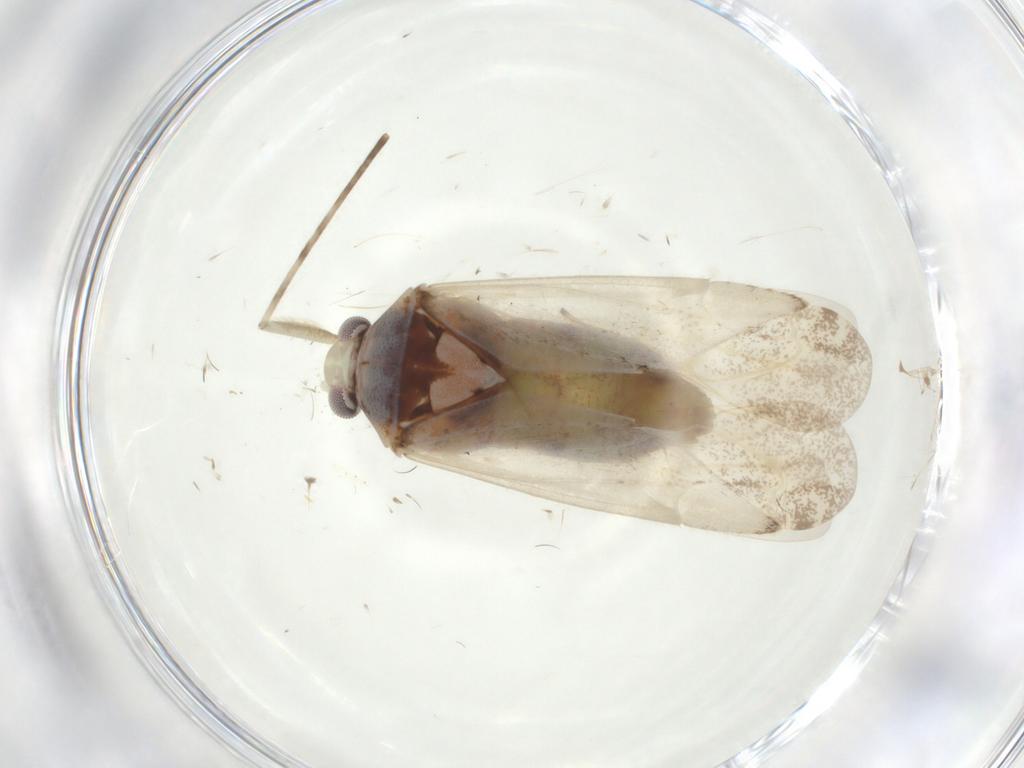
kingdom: Animalia
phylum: Arthropoda
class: Insecta
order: Hemiptera
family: Miridae
